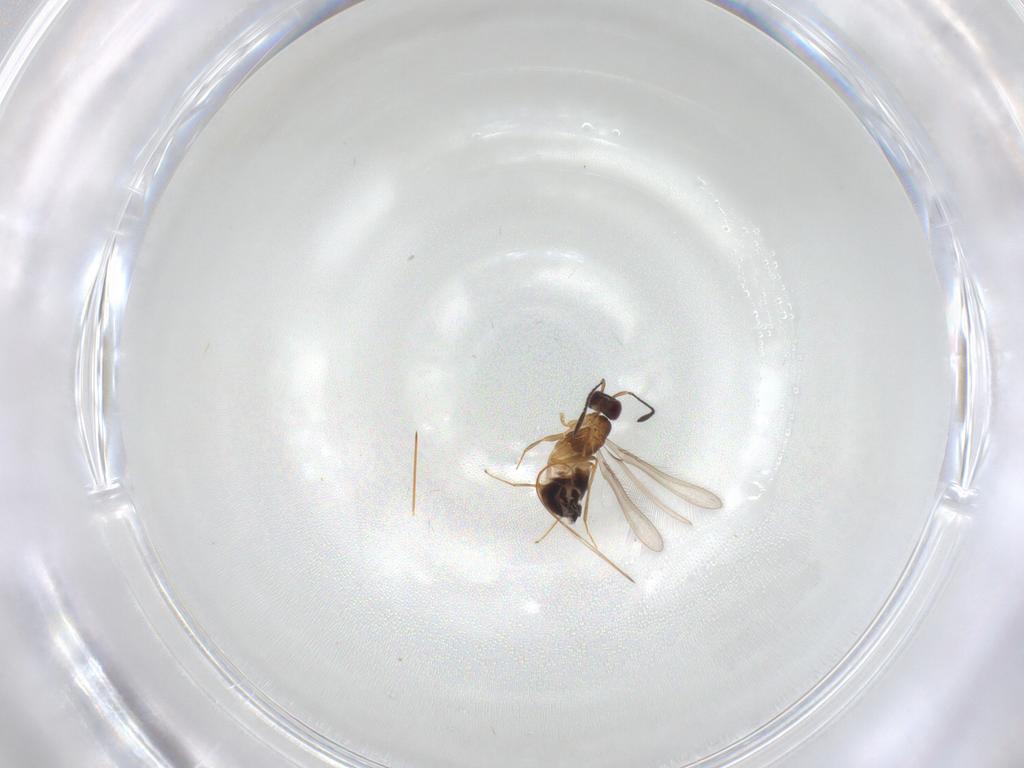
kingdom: Animalia
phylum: Arthropoda
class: Insecta
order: Hymenoptera
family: Mymaridae
